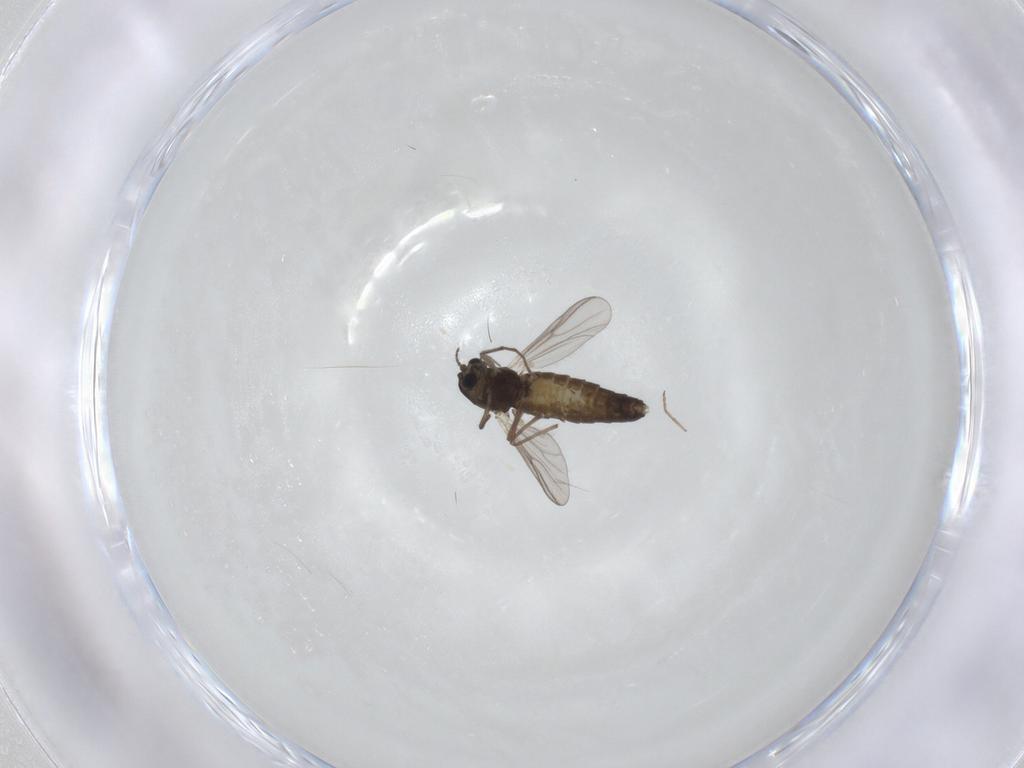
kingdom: Animalia
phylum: Arthropoda
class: Insecta
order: Diptera
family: Chironomidae
